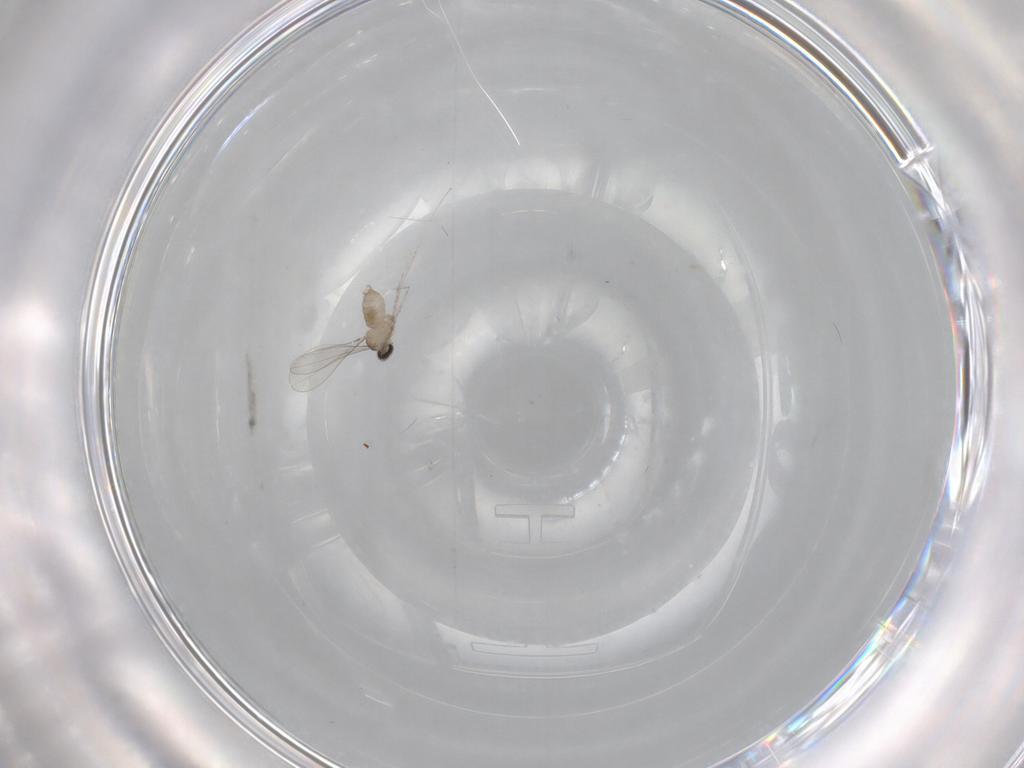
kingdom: Animalia
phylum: Arthropoda
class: Insecta
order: Diptera
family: Cecidomyiidae
